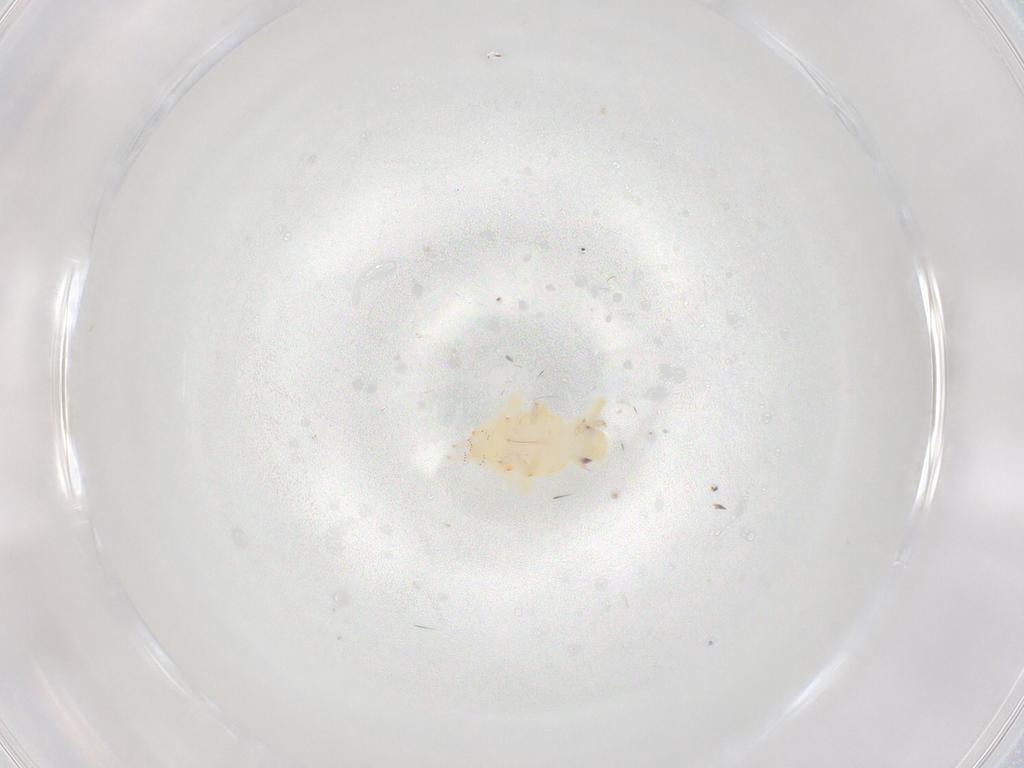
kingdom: Animalia
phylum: Arthropoda
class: Insecta
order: Hemiptera
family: Tropiduchidae
